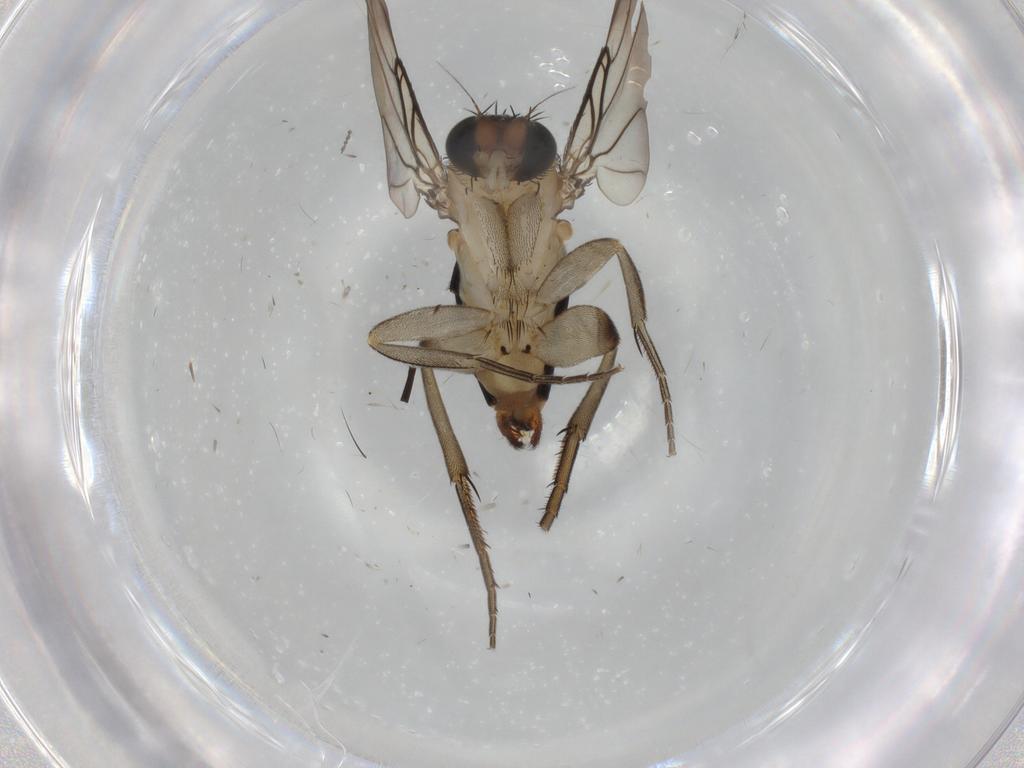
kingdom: Animalia
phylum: Arthropoda
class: Insecta
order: Diptera
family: Phoridae
